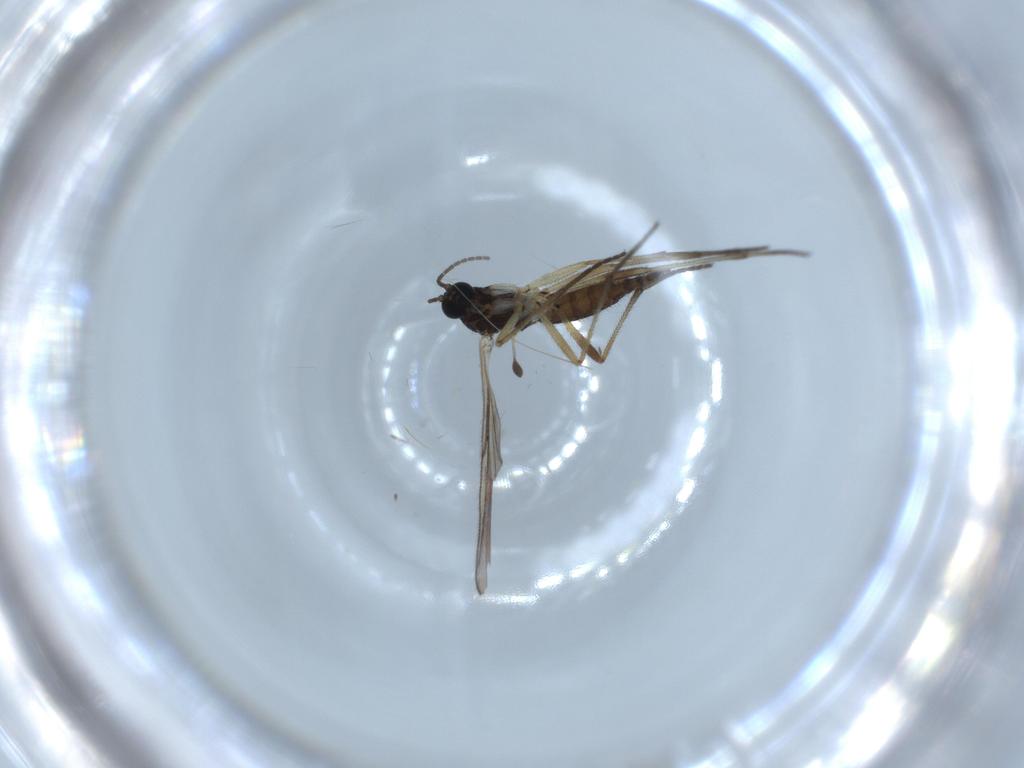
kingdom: Animalia
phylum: Arthropoda
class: Insecta
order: Diptera
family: Sciaridae
